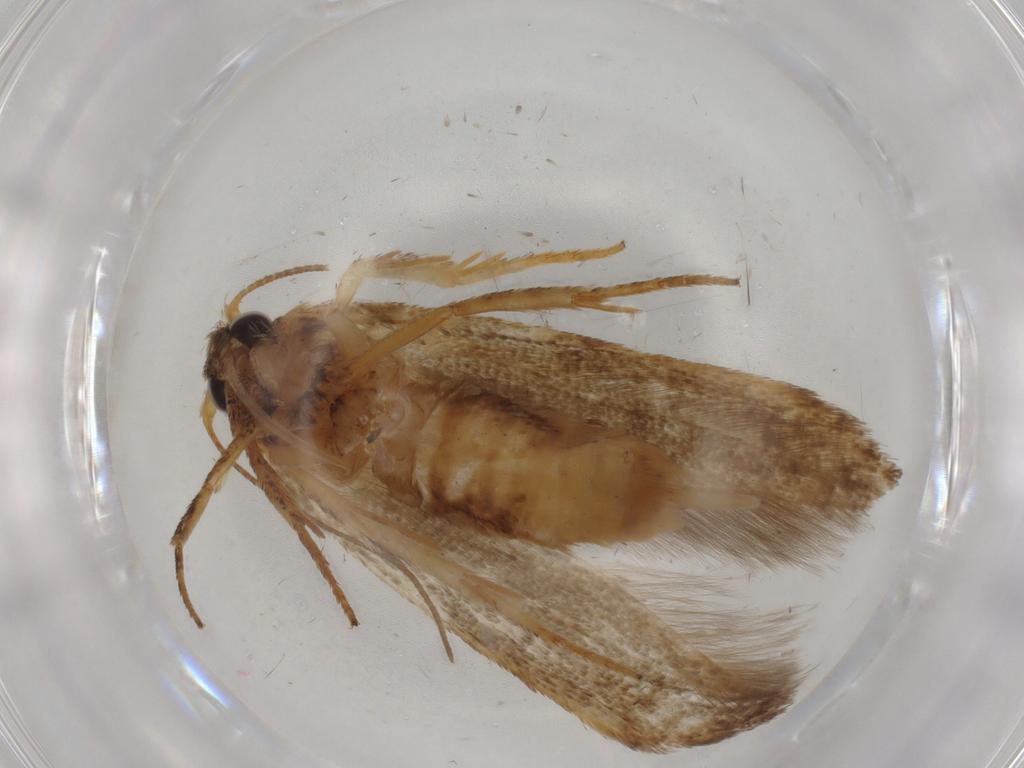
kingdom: Animalia
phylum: Arthropoda
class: Insecta
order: Lepidoptera
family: Blastobasidae
